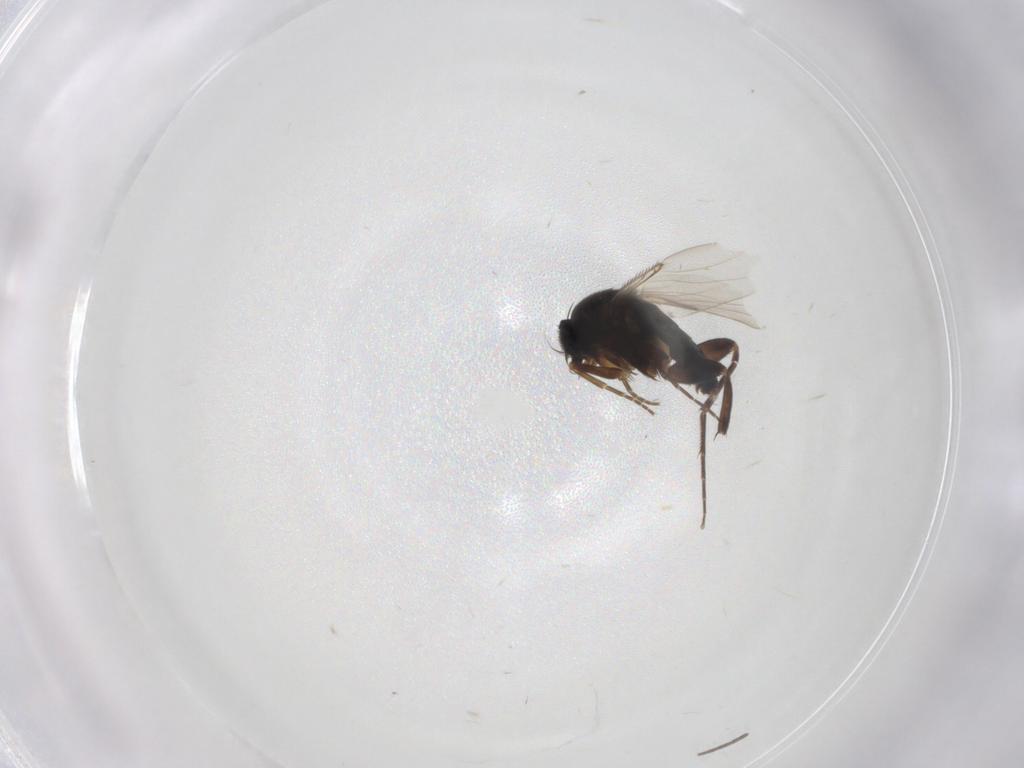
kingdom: Animalia
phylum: Arthropoda
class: Insecta
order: Diptera
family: Phoridae
